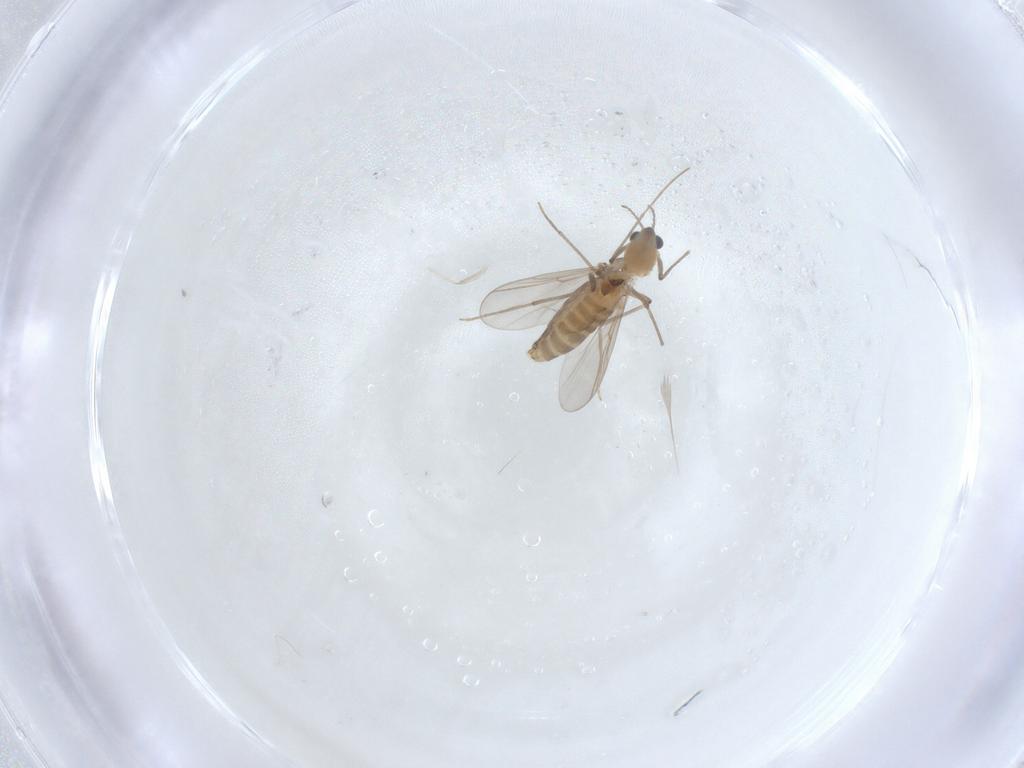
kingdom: Animalia
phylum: Arthropoda
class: Insecta
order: Diptera
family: Chironomidae
